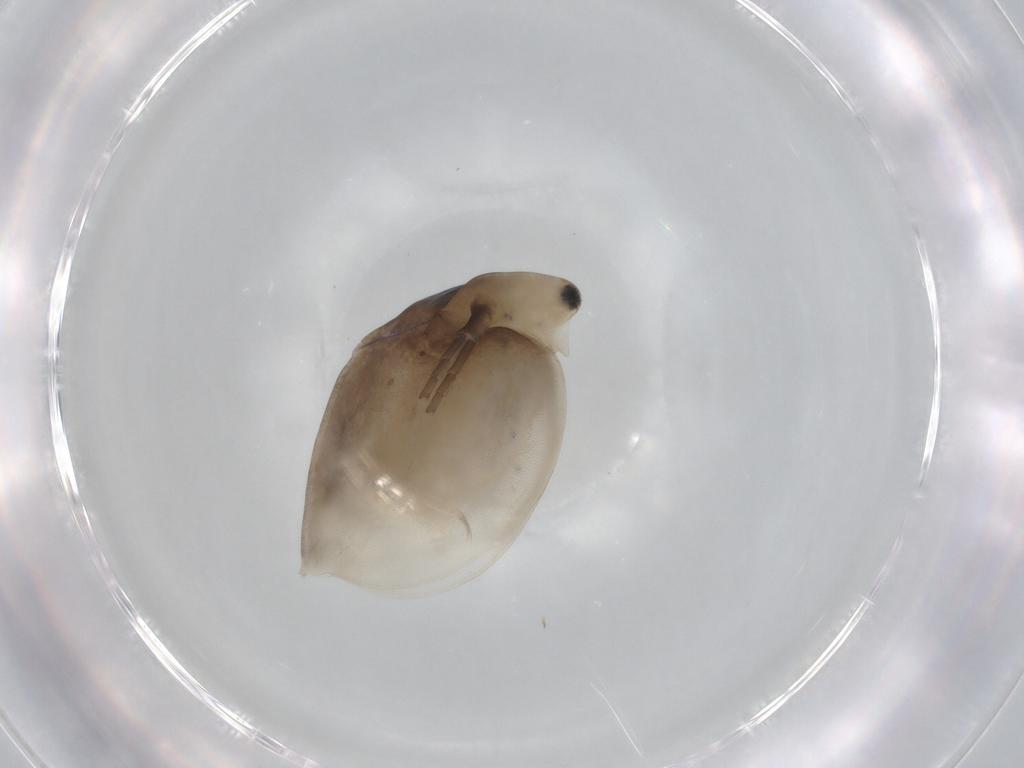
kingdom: Animalia
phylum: Arthropoda
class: Branchiopoda
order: Diplostraca
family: Daphniidae
